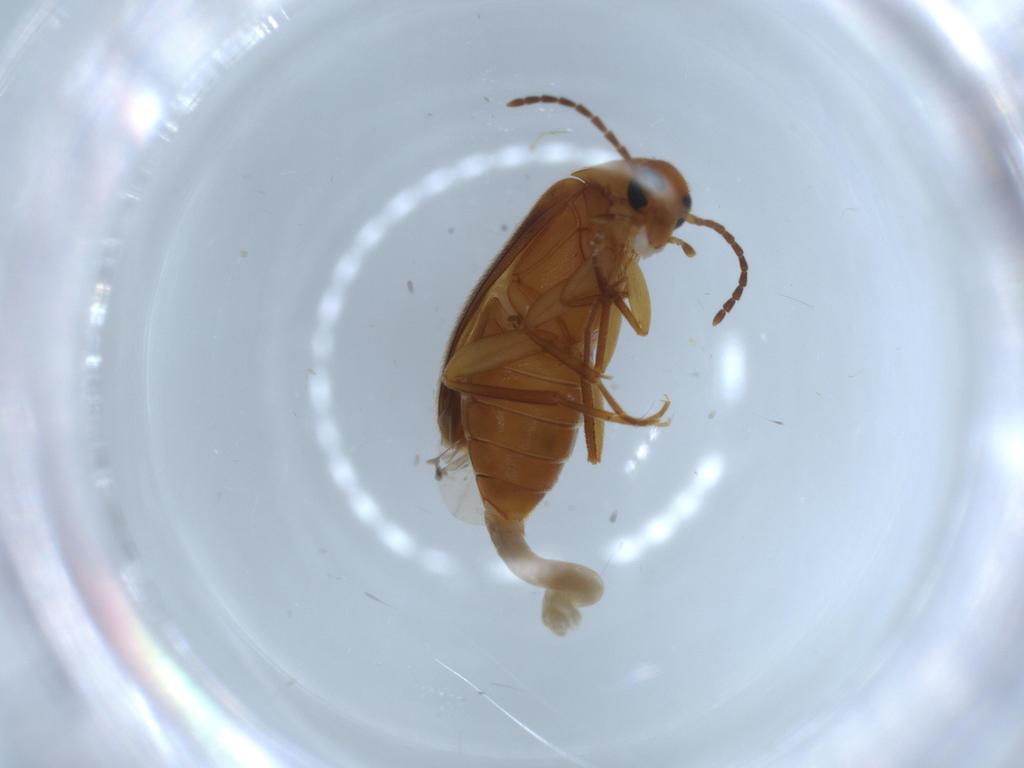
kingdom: Animalia
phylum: Arthropoda
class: Insecta
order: Coleoptera
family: Scraptiidae
